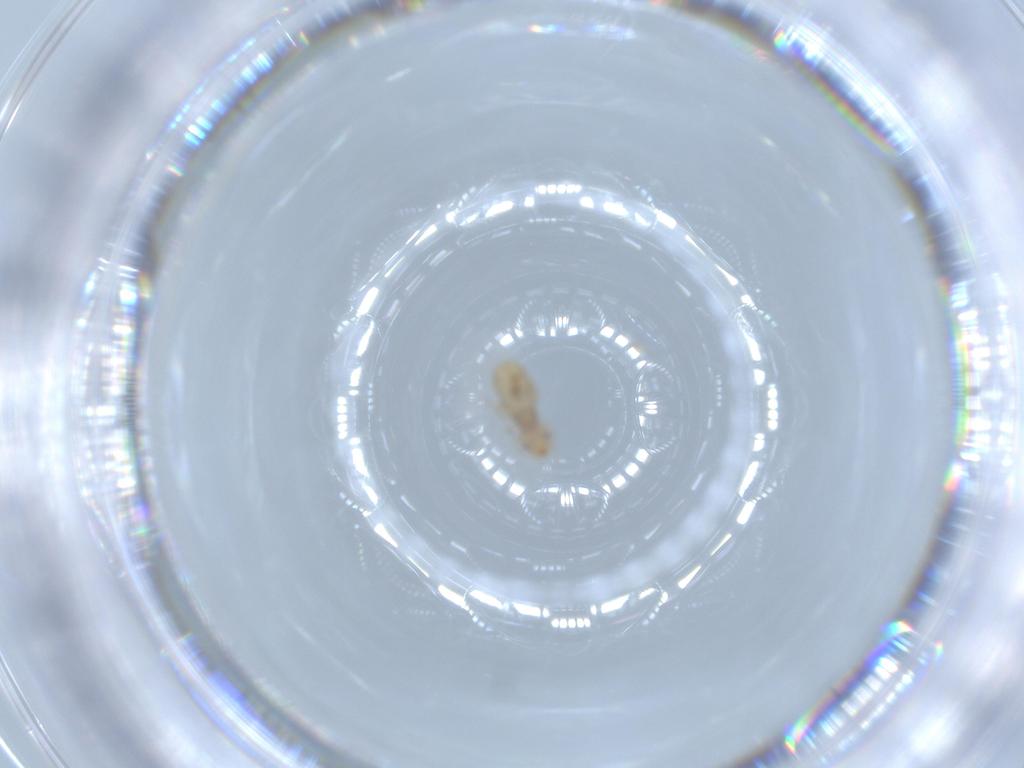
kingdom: Animalia
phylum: Arthropoda
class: Insecta
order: Psocodea
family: Liposcelididae
